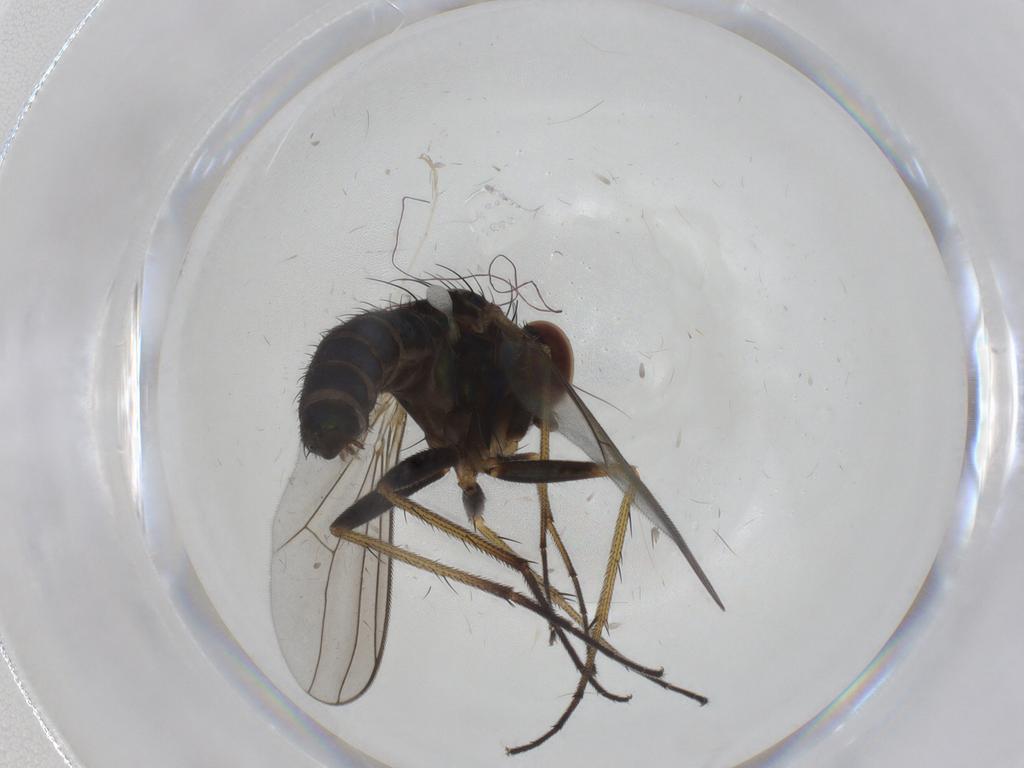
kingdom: Animalia
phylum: Arthropoda
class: Insecta
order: Diptera
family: Dolichopodidae
